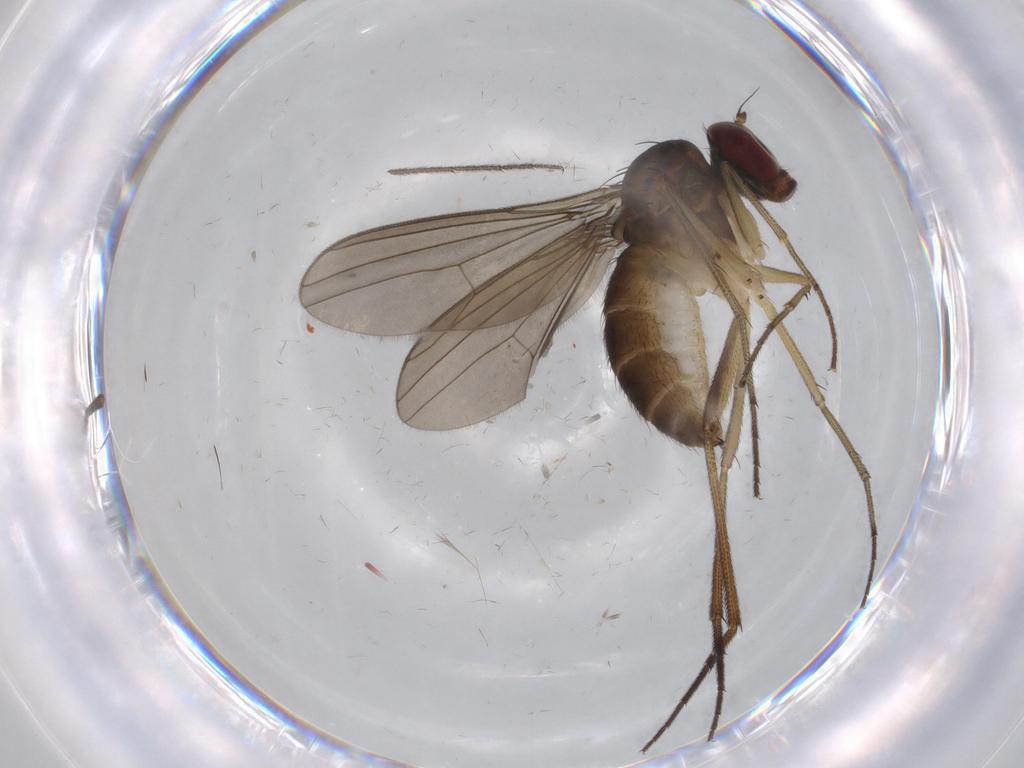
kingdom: Animalia
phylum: Arthropoda
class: Insecta
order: Diptera
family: Dolichopodidae
